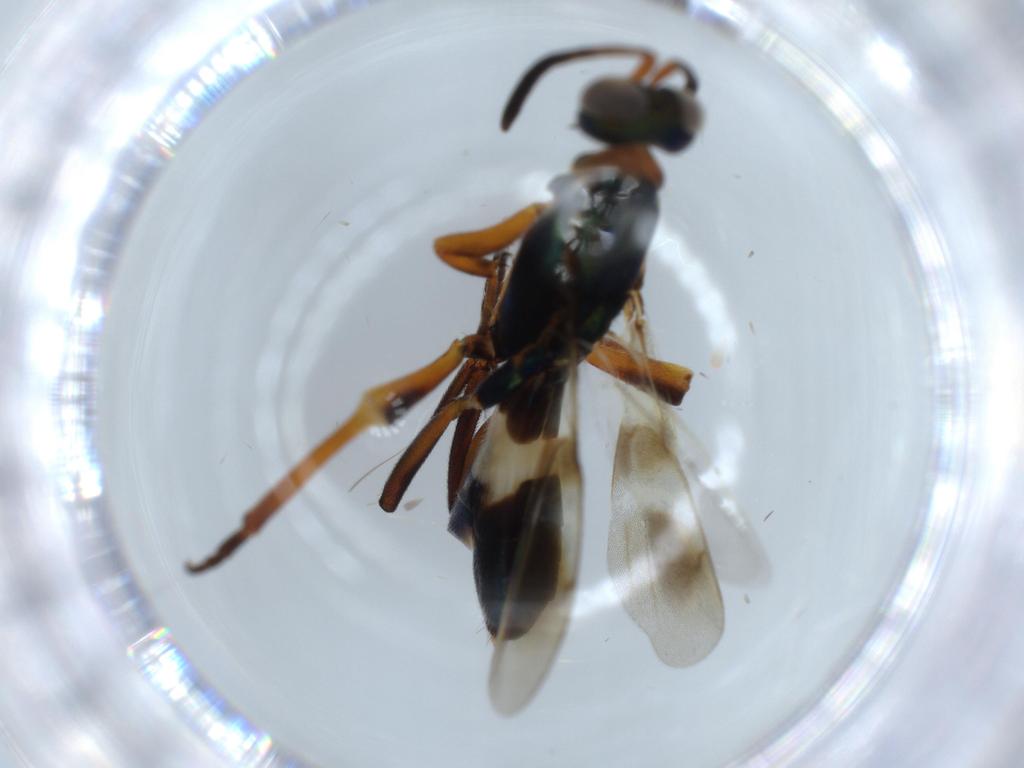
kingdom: Animalia
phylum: Arthropoda
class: Insecta
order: Hymenoptera
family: Eupelmidae
